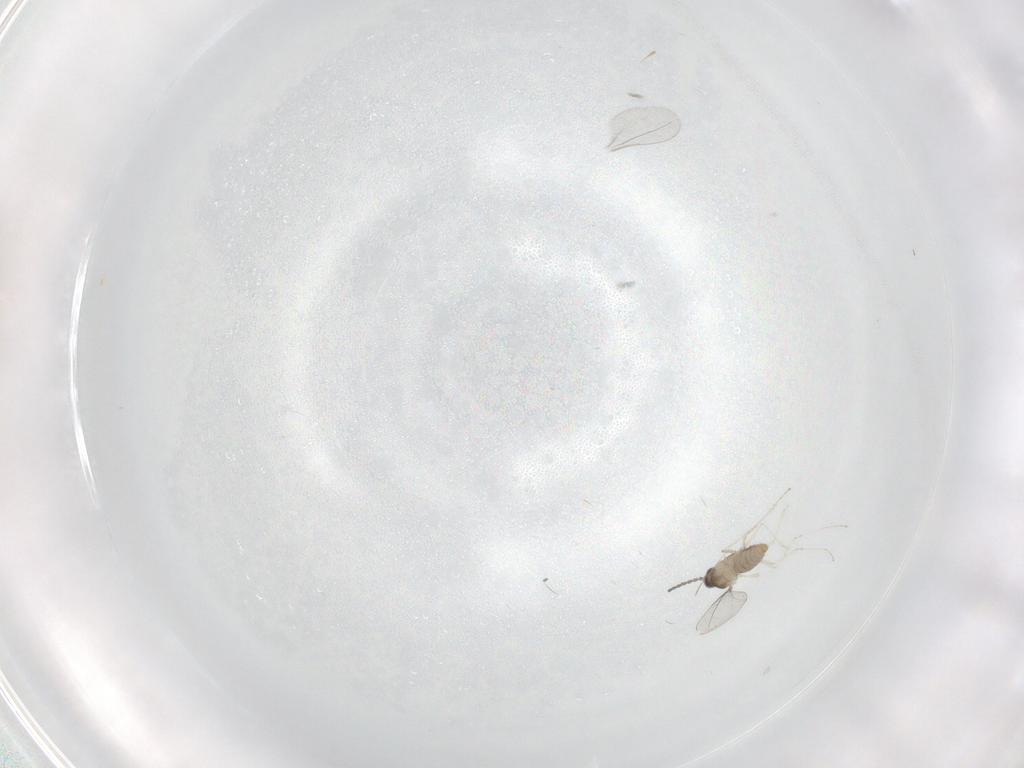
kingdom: Animalia
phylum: Arthropoda
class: Insecta
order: Diptera
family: Cecidomyiidae
